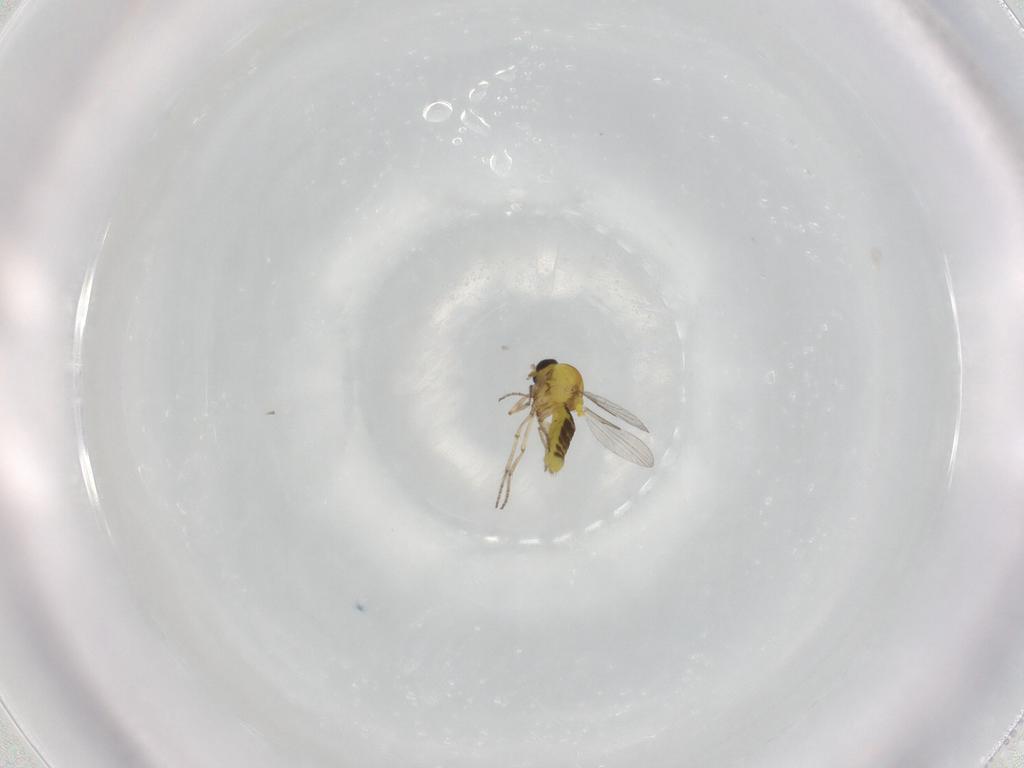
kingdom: Animalia
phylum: Arthropoda
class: Insecta
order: Diptera
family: Ceratopogonidae
